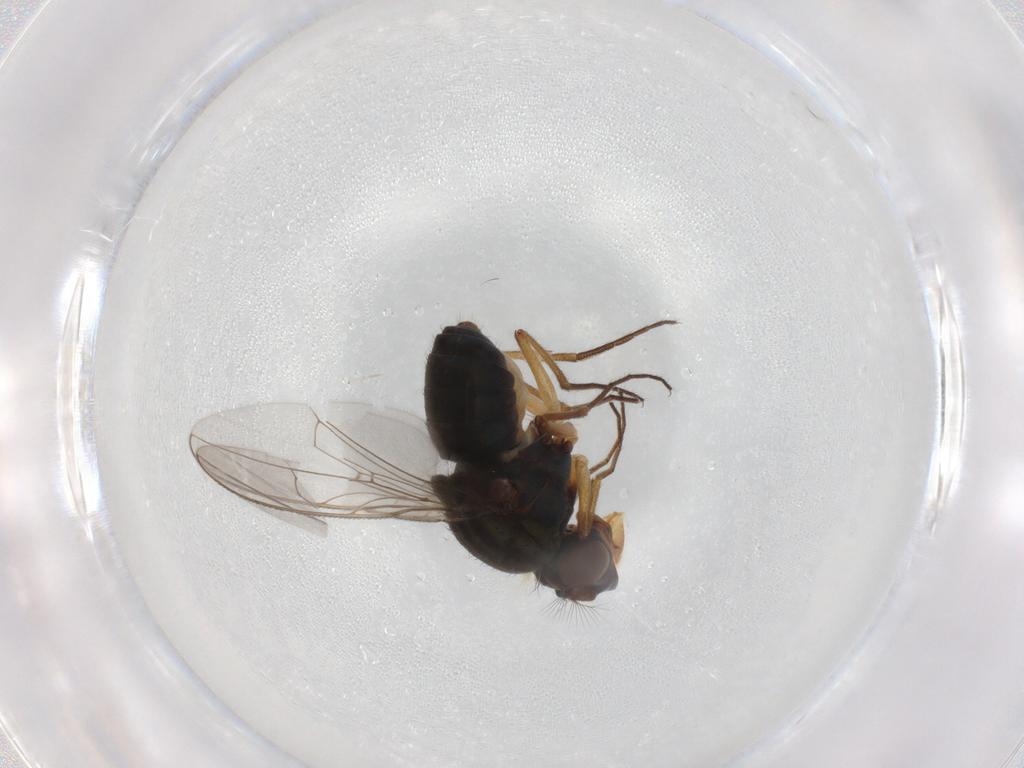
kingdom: Animalia
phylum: Arthropoda
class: Insecta
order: Diptera
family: Ephydridae
